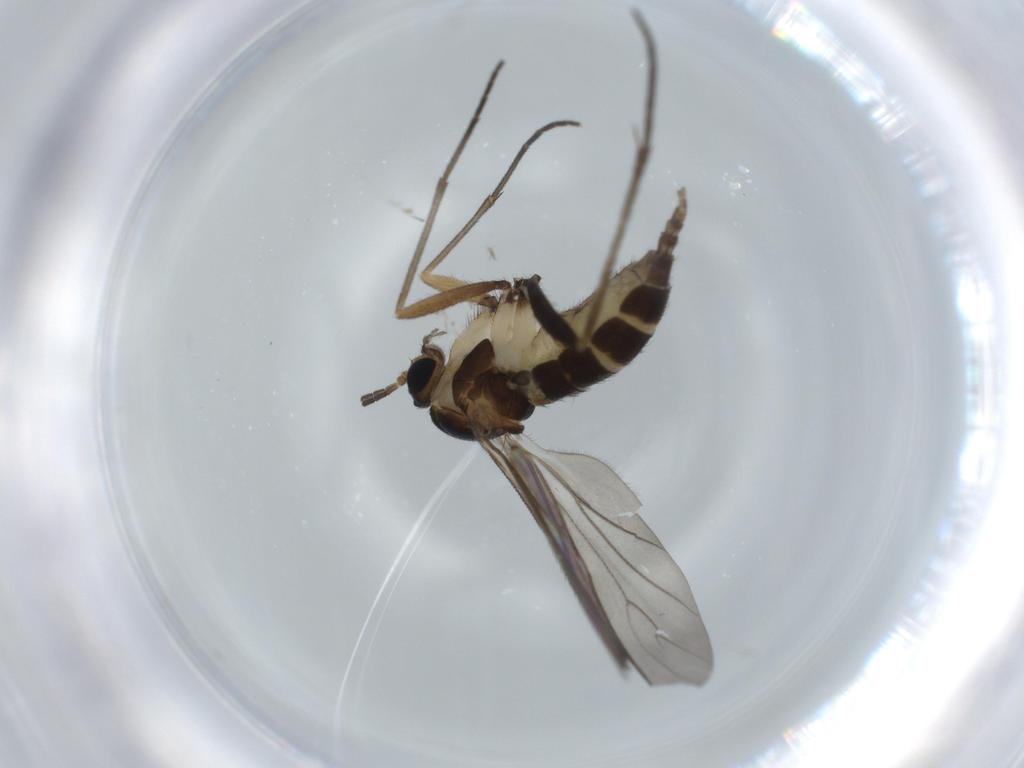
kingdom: Animalia
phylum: Arthropoda
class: Insecta
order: Diptera
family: Sciaridae
